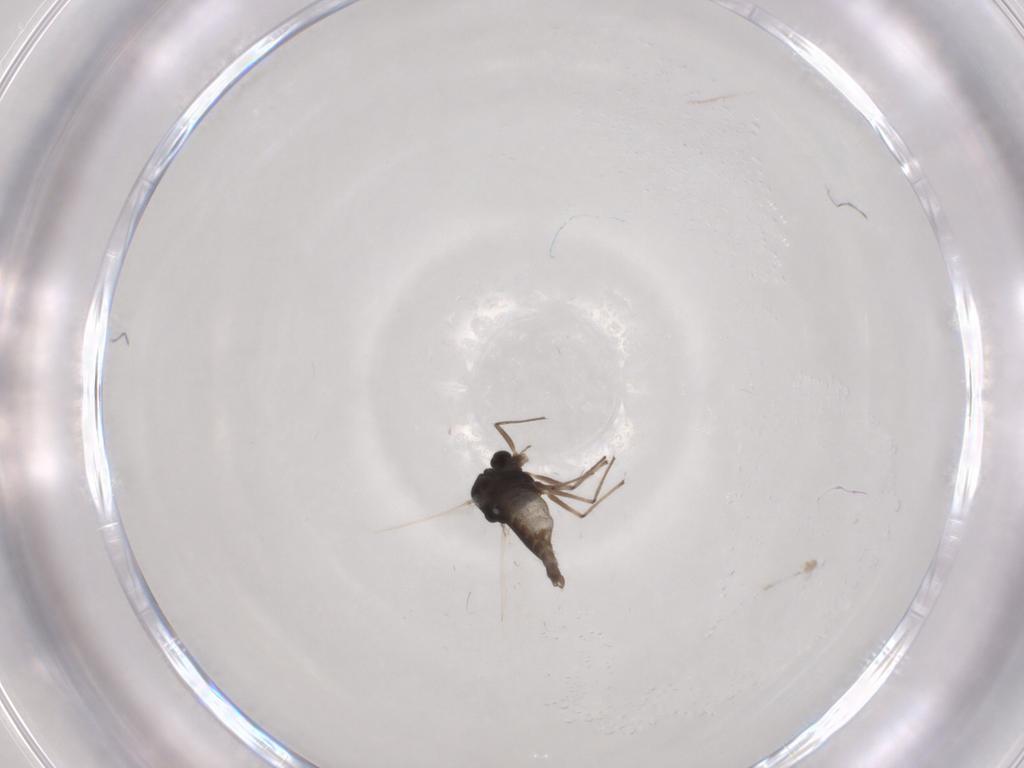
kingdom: Animalia
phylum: Arthropoda
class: Insecta
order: Diptera
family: Chironomidae
